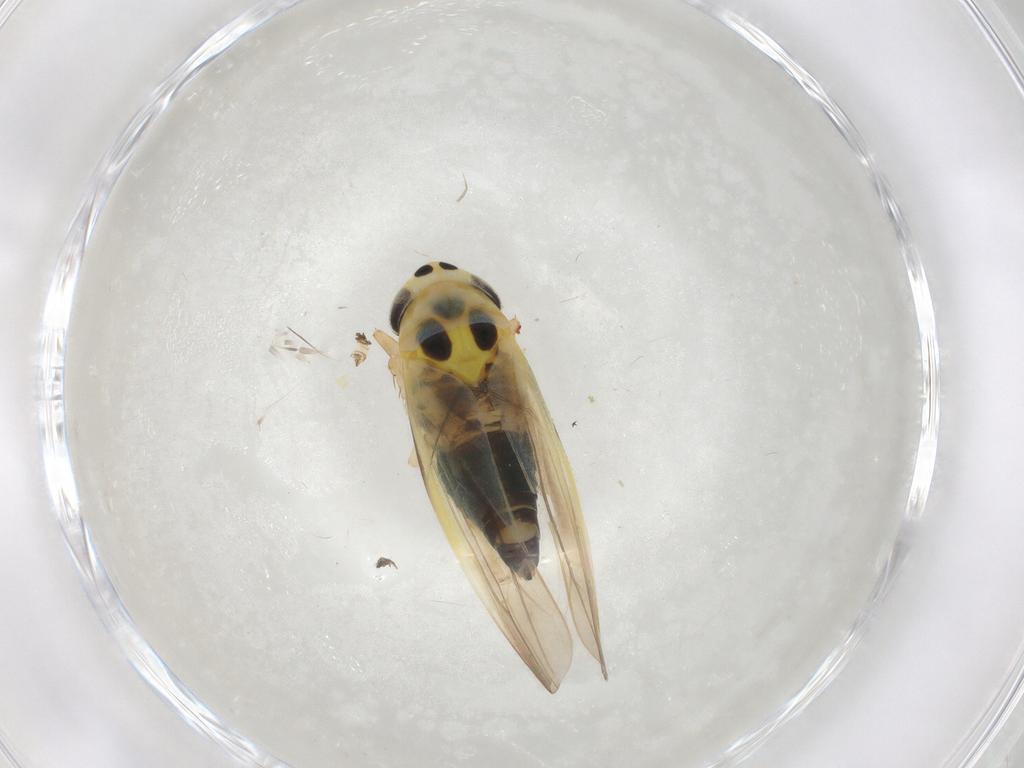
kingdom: Animalia
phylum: Arthropoda
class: Insecta
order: Hemiptera
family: Cicadellidae
